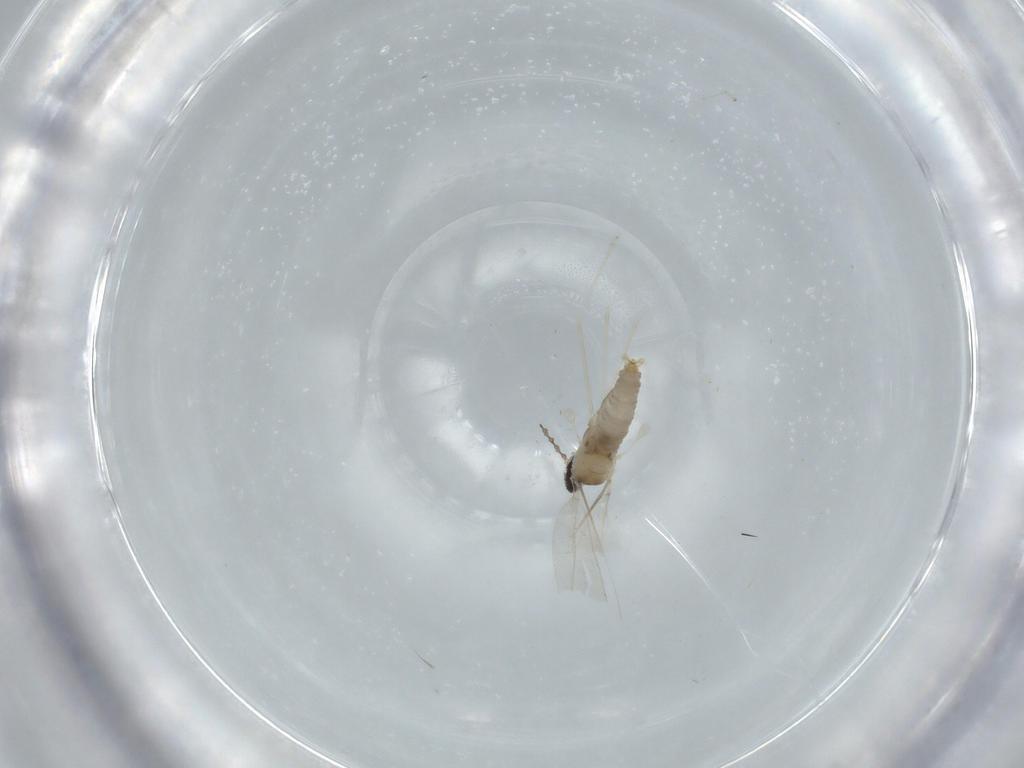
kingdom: Animalia
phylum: Arthropoda
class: Insecta
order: Diptera
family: Cecidomyiidae
